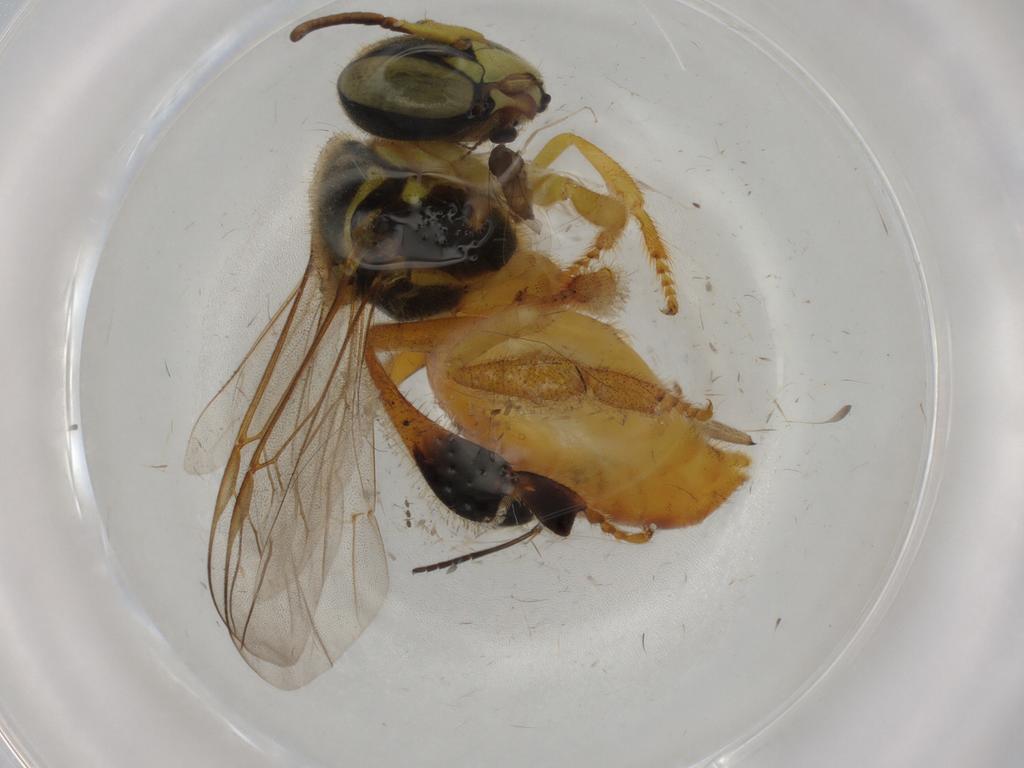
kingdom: Animalia
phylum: Arthropoda
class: Insecta
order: Hymenoptera
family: Apidae
